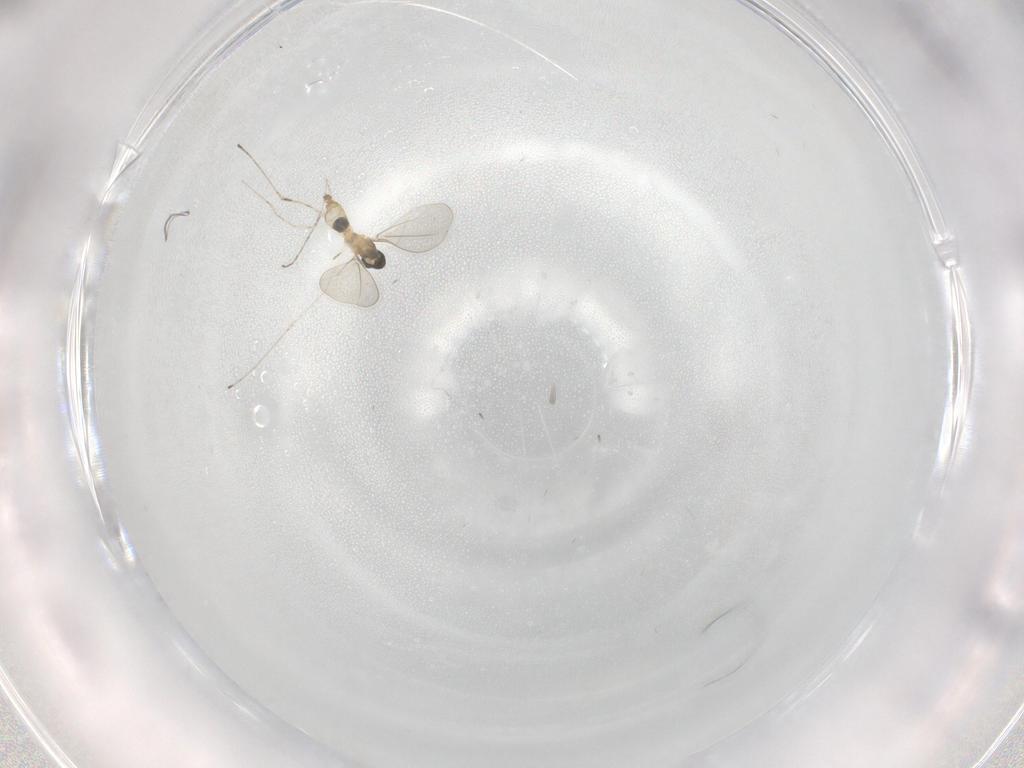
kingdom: Animalia
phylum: Arthropoda
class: Insecta
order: Diptera
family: Cecidomyiidae
